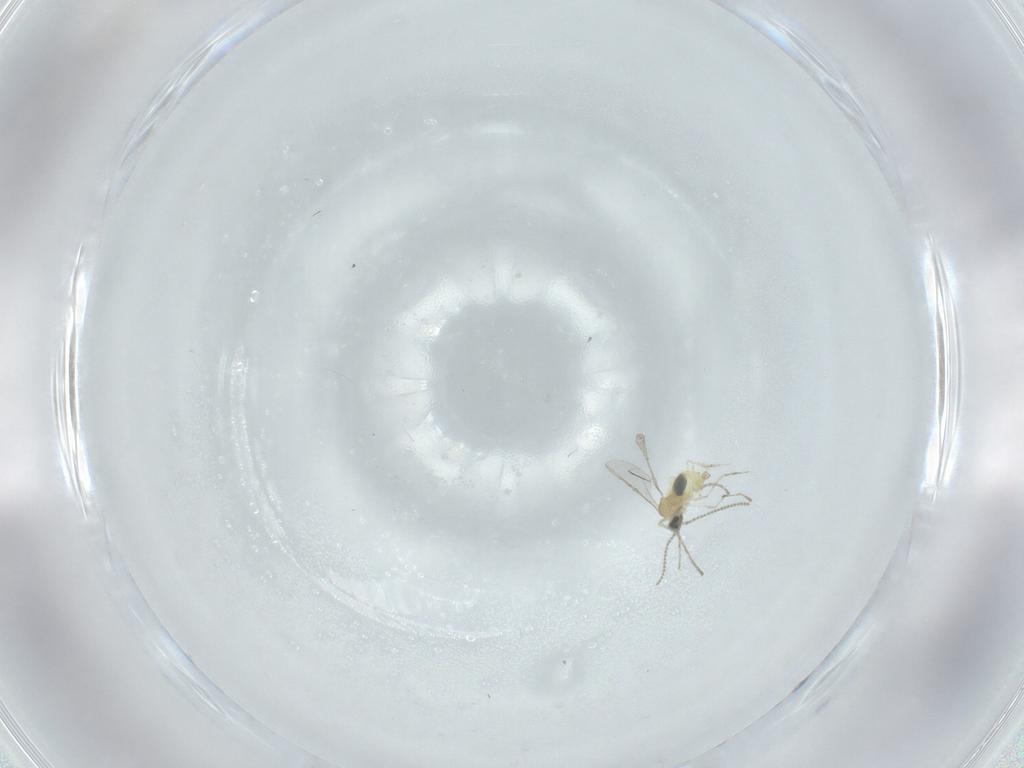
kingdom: Animalia
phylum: Arthropoda
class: Insecta
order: Diptera
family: Cecidomyiidae
